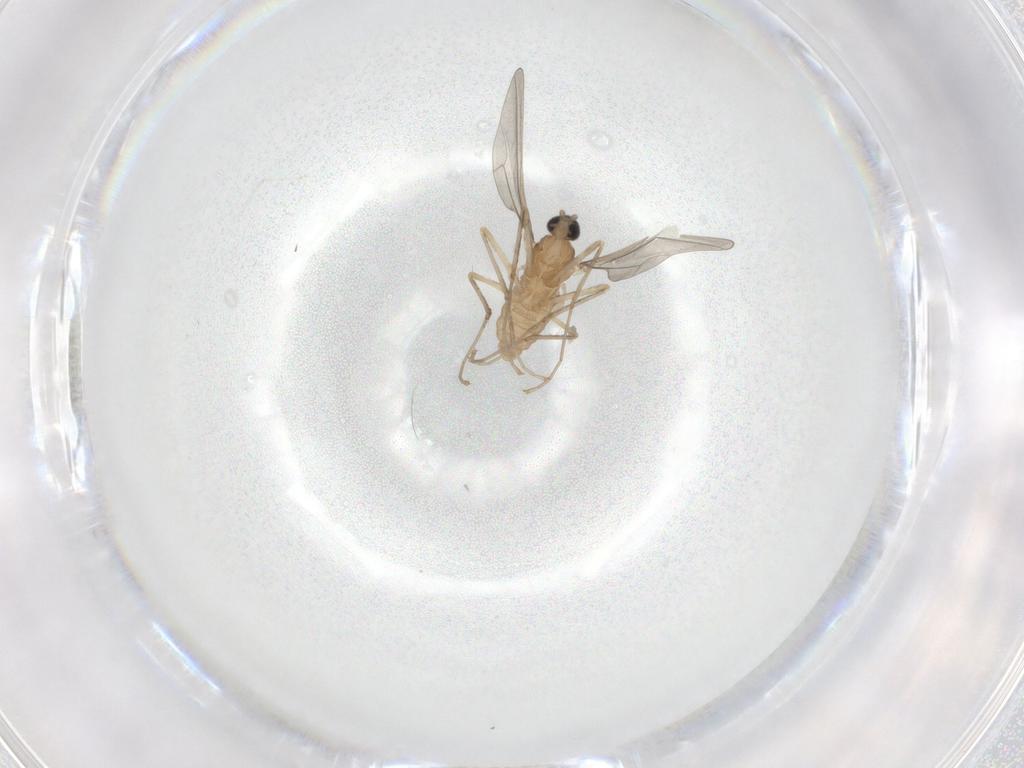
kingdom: Animalia
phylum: Arthropoda
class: Insecta
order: Diptera
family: Cecidomyiidae
